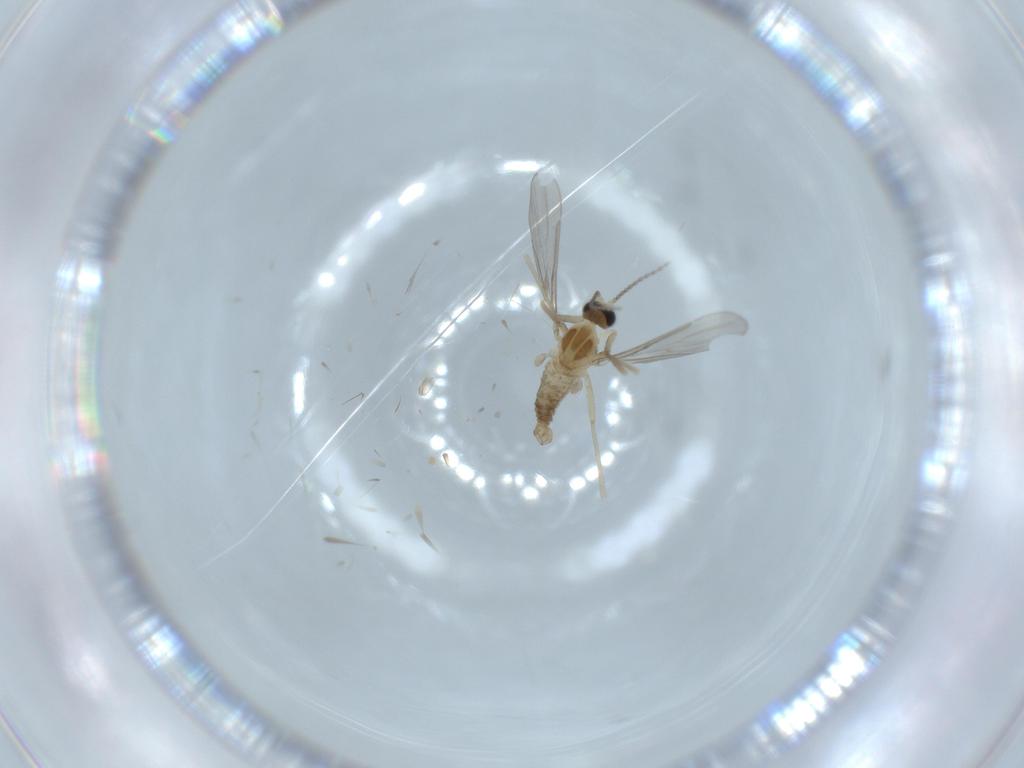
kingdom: Animalia
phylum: Arthropoda
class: Insecta
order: Diptera
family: Cecidomyiidae
